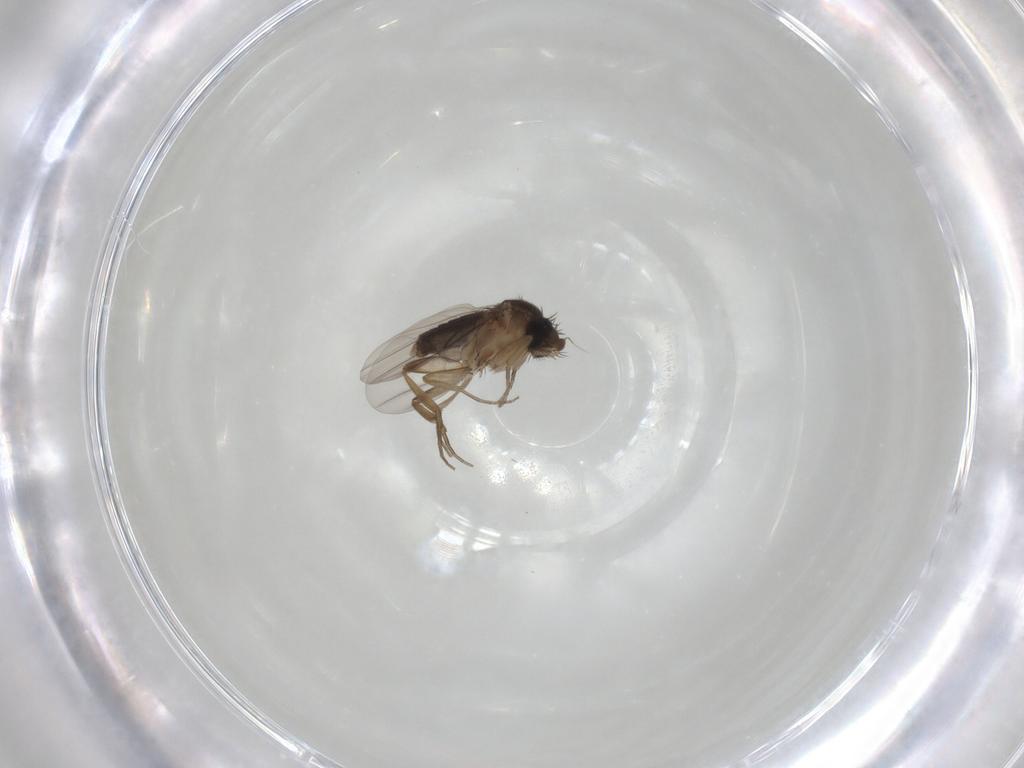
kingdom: Animalia
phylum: Arthropoda
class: Insecta
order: Diptera
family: Phoridae
